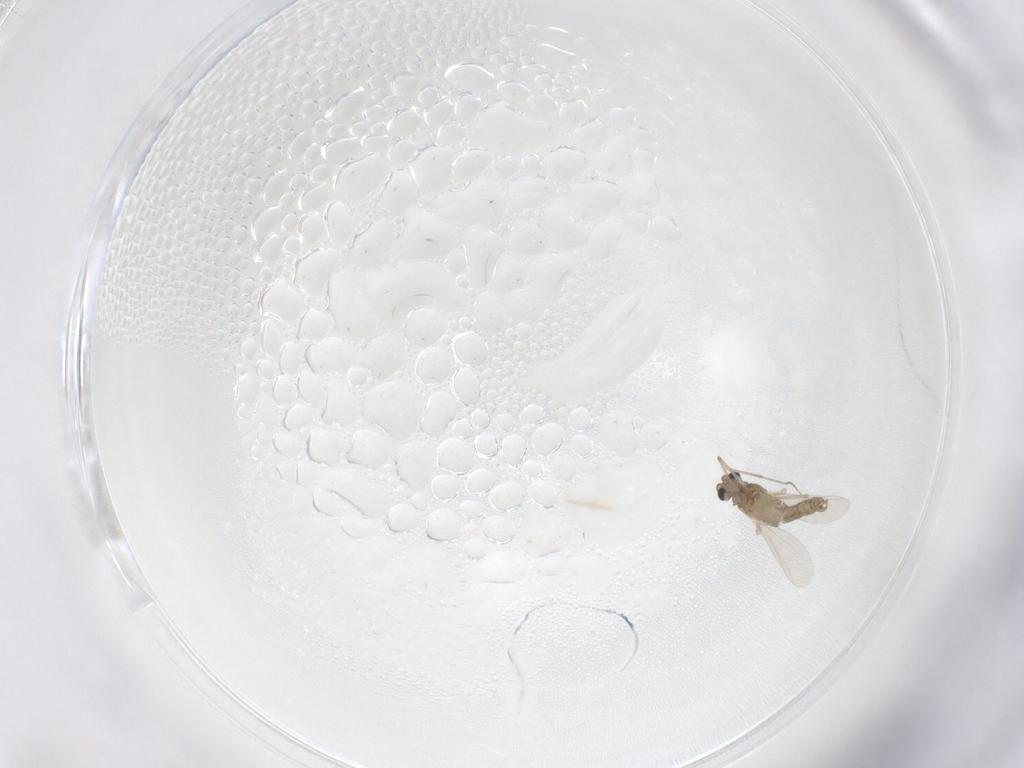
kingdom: Animalia
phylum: Arthropoda
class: Insecta
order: Diptera
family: Chironomidae
